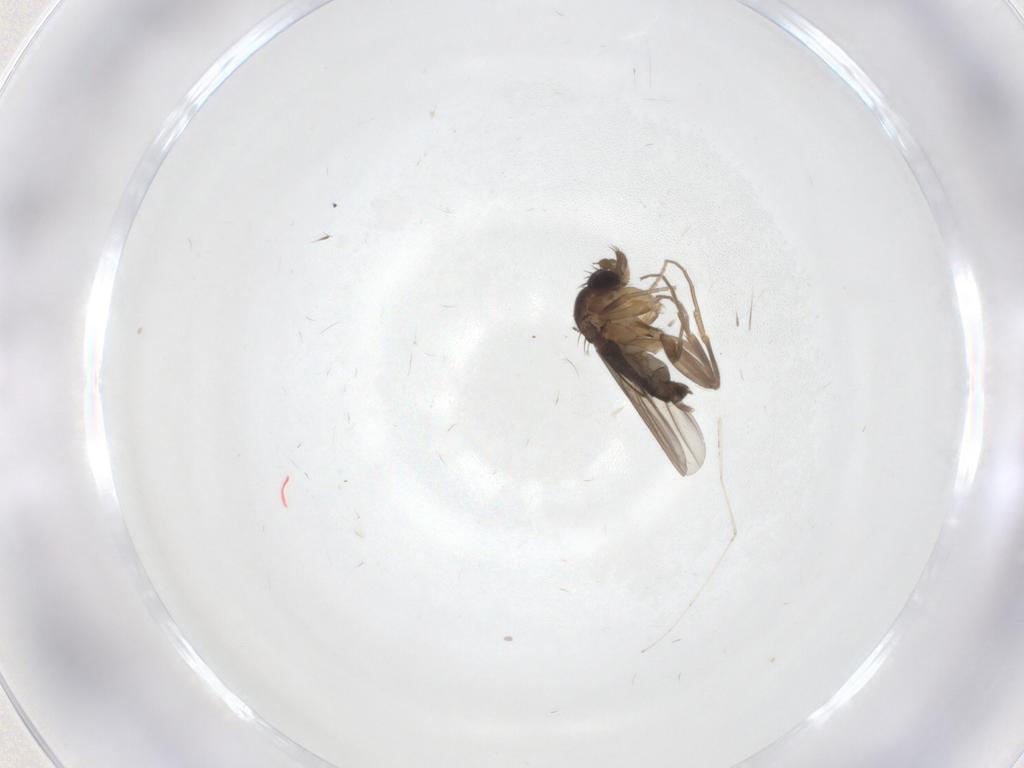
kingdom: Animalia
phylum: Arthropoda
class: Insecta
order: Diptera
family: Phoridae
